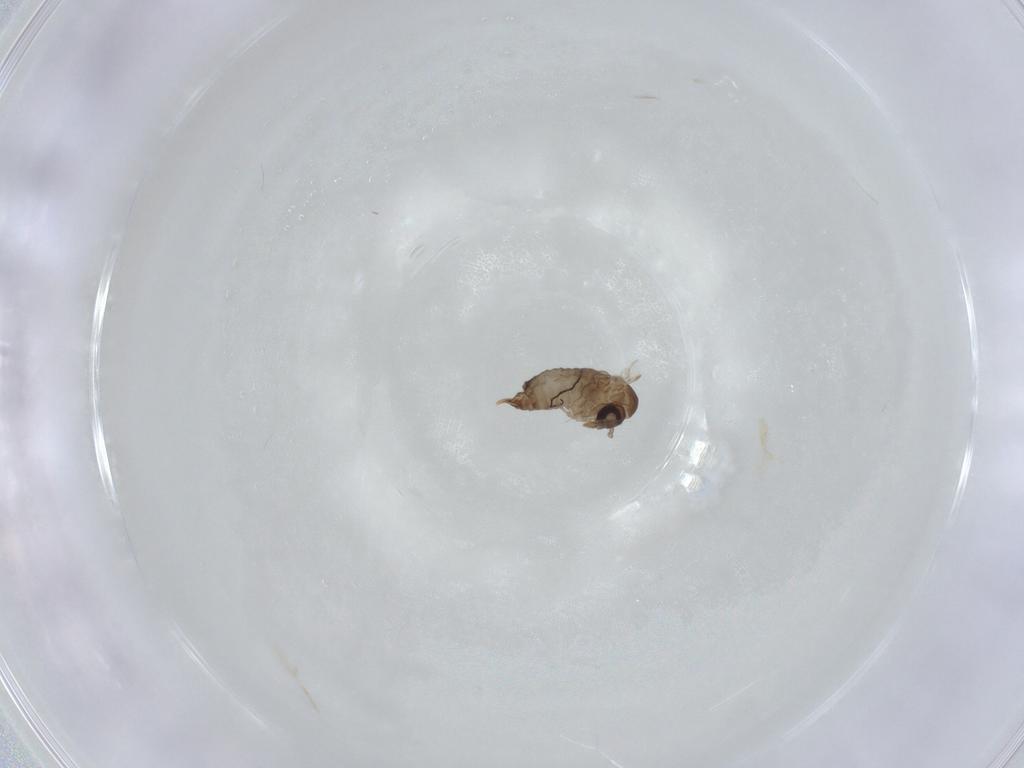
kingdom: Animalia
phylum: Arthropoda
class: Insecta
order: Diptera
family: Psychodidae
